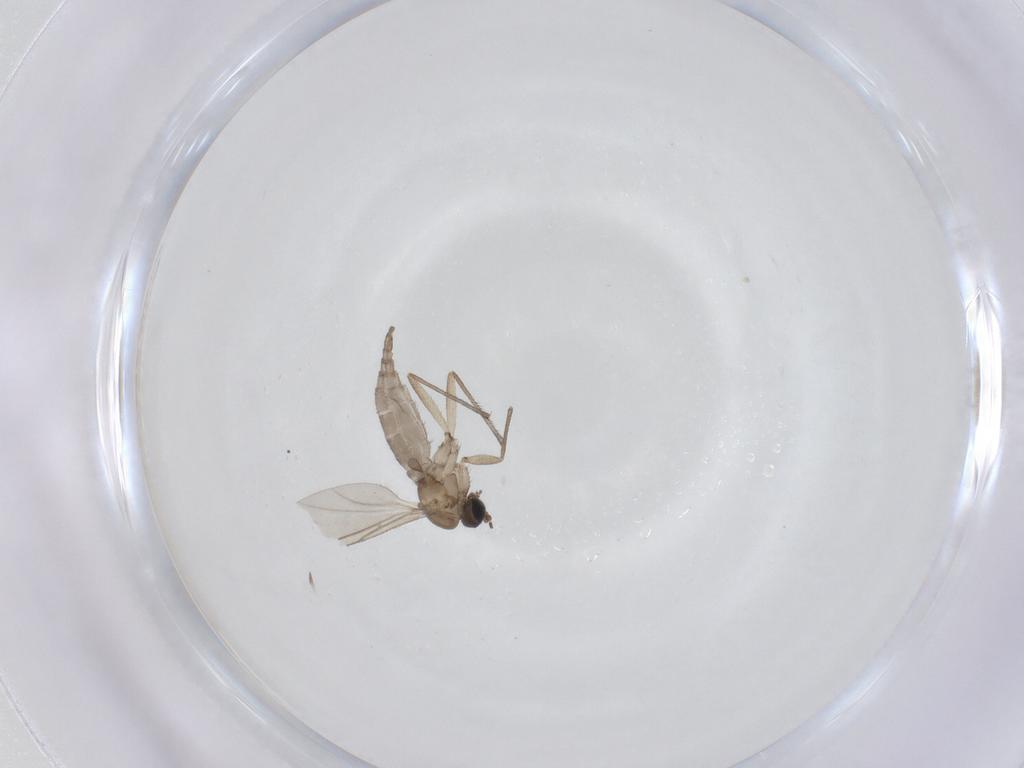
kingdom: Animalia
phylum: Arthropoda
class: Insecta
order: Diptera
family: Sciaridae
